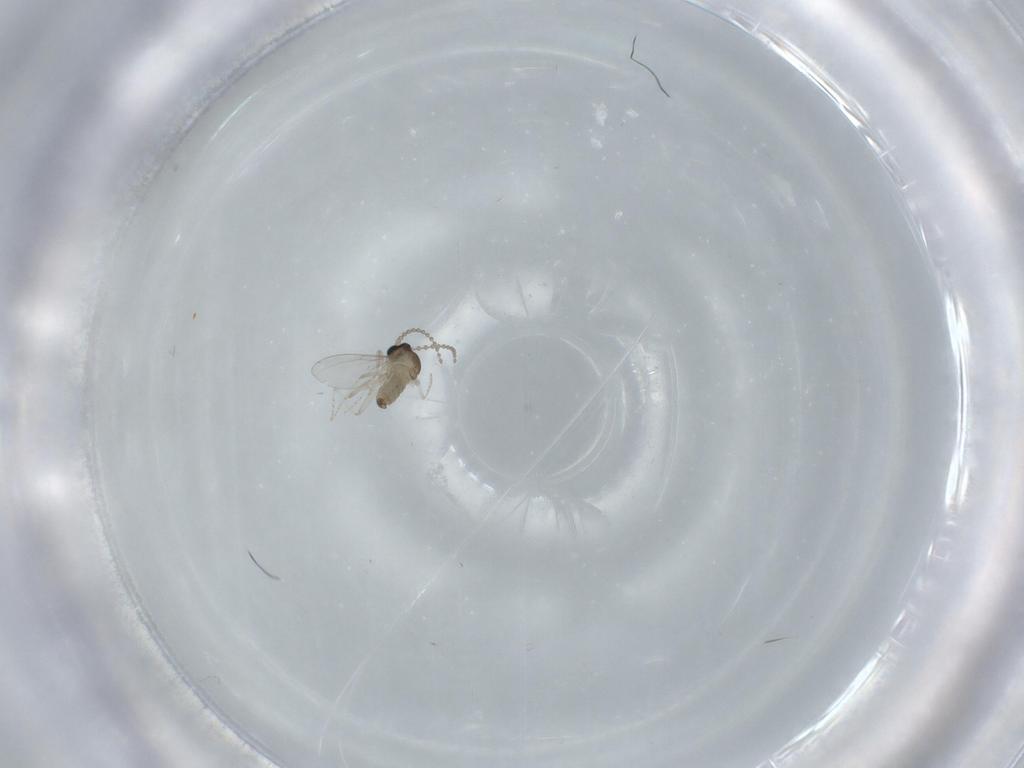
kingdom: Animalia
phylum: Arthropoda
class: Insecta
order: Diptera
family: Cecidomyiidae
